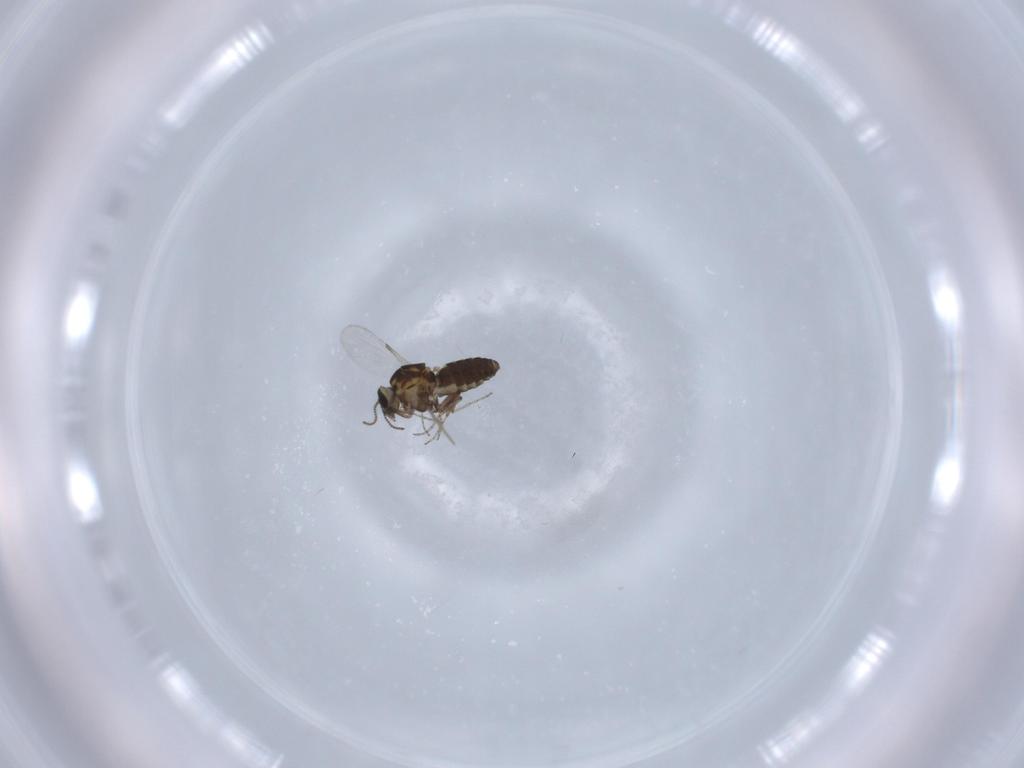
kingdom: Animalia
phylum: Arthropoda
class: Insecta
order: Diptera
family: Ceratopogonidae
